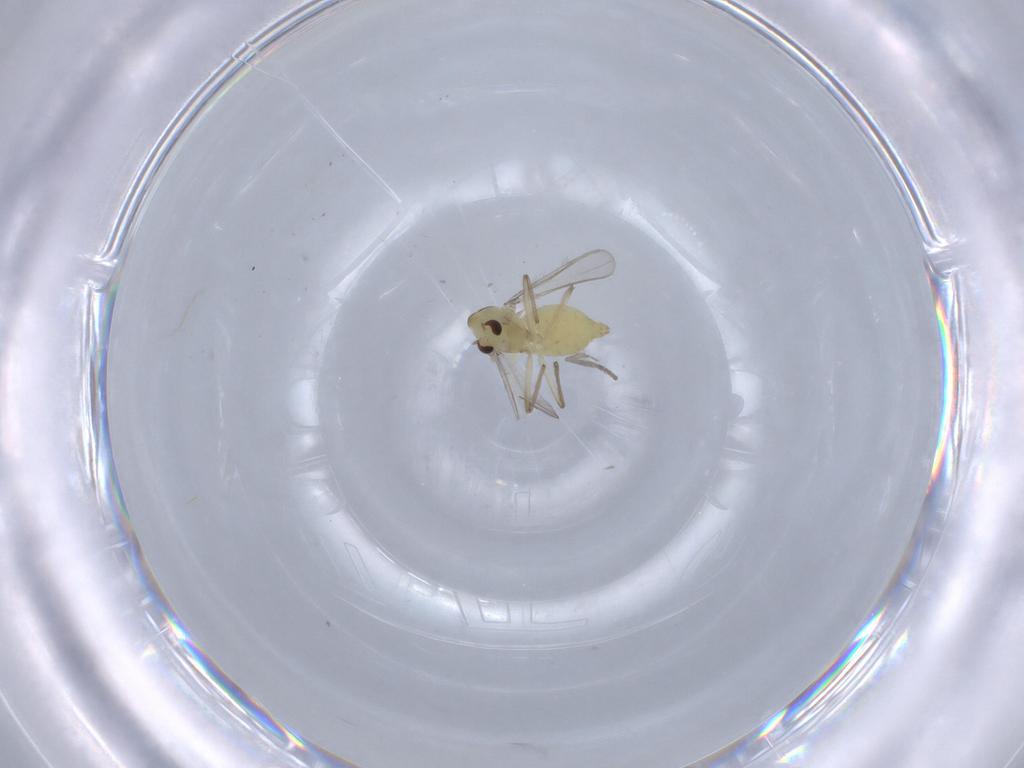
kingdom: Animalia
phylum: Arthropoda
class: Insecta
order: Diptera
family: Chironomidae
